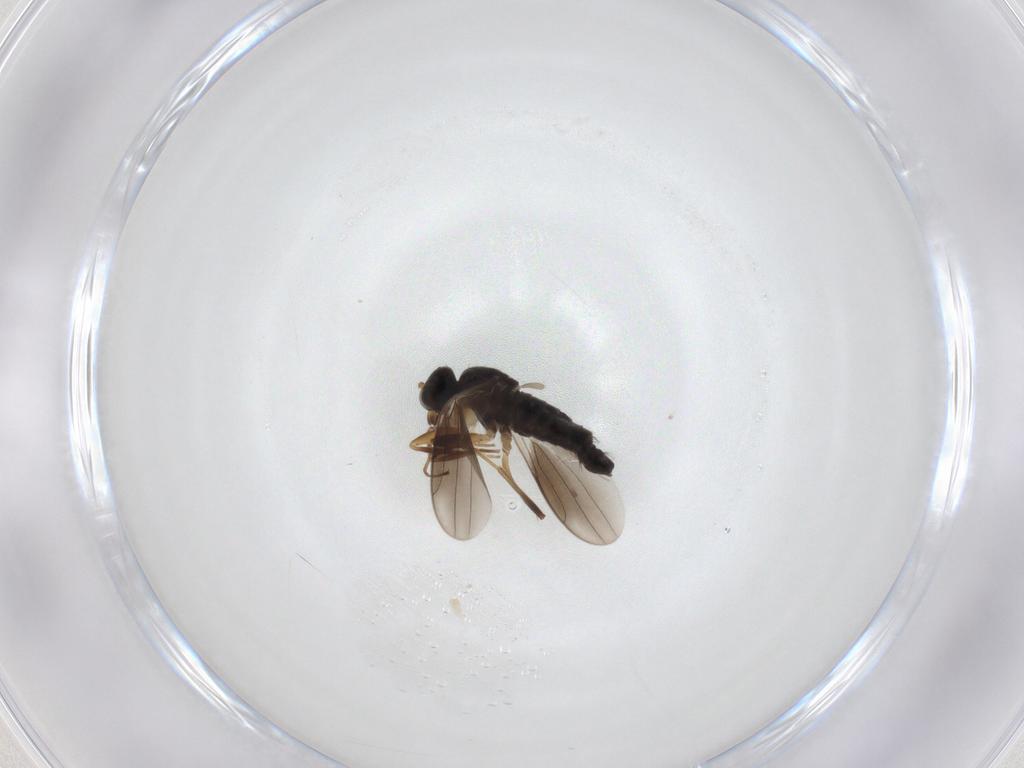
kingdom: Animalia
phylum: Arthropoda
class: Insecta
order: Diptera
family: Hybotidae
